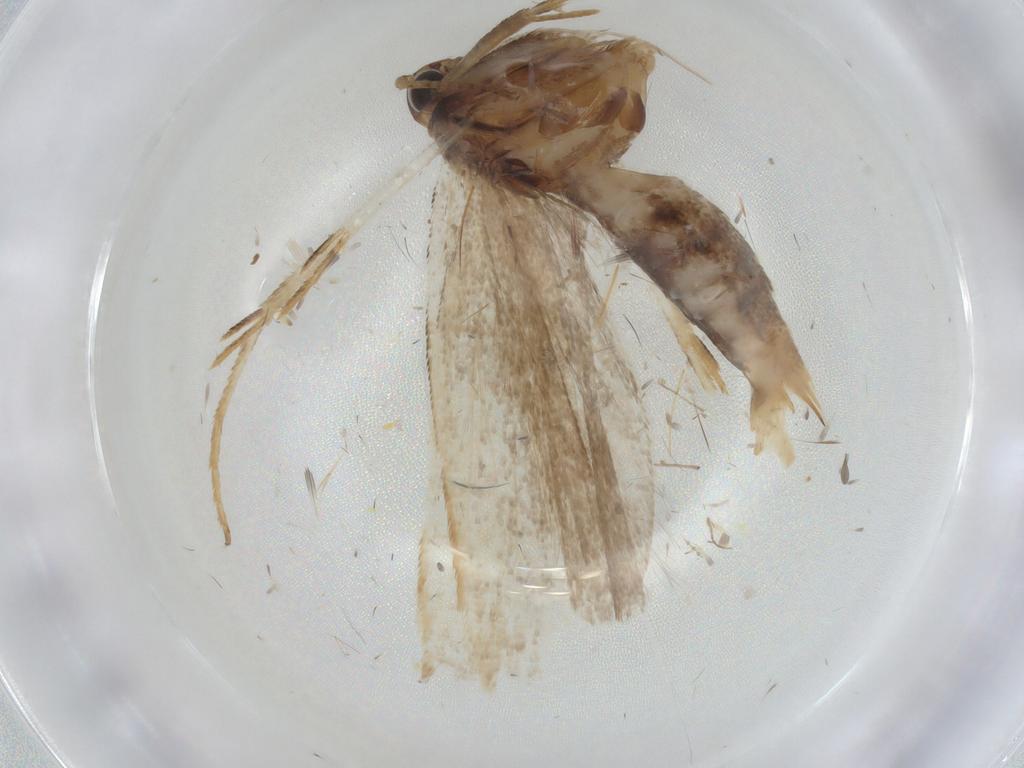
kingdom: Animalia
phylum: Arthropoda
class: Insecta
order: Lepidoptera
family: Gelechiidae
